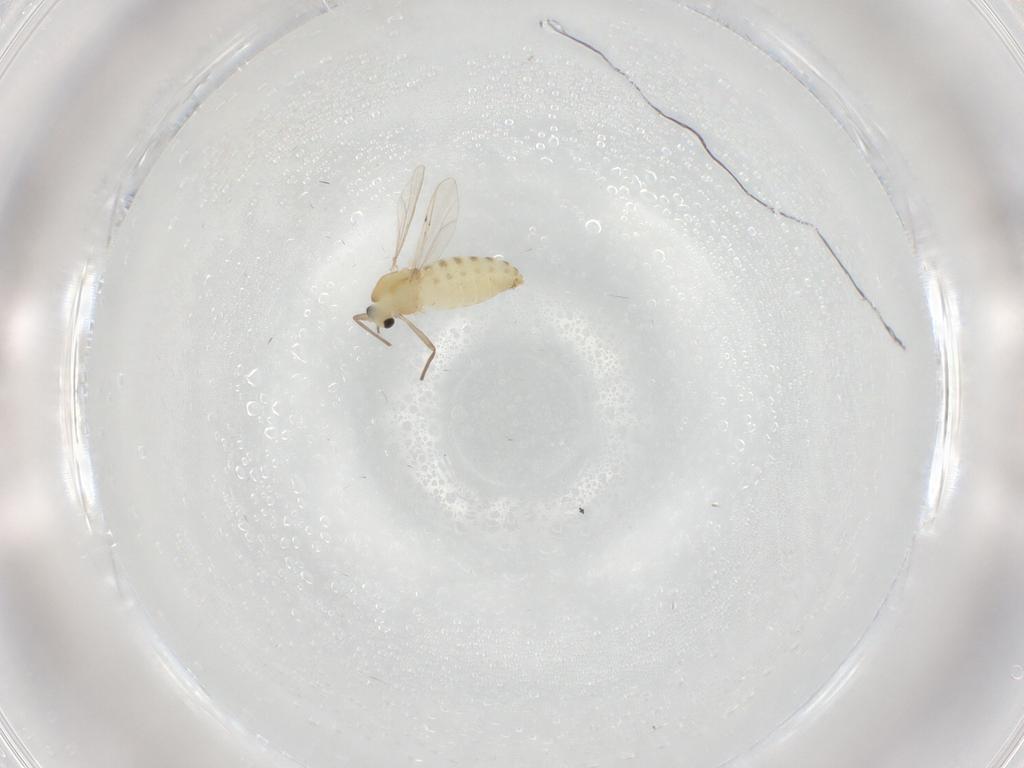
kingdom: Animalia
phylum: Arthropoda
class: Insecta
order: Diptera
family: Chironomidae
